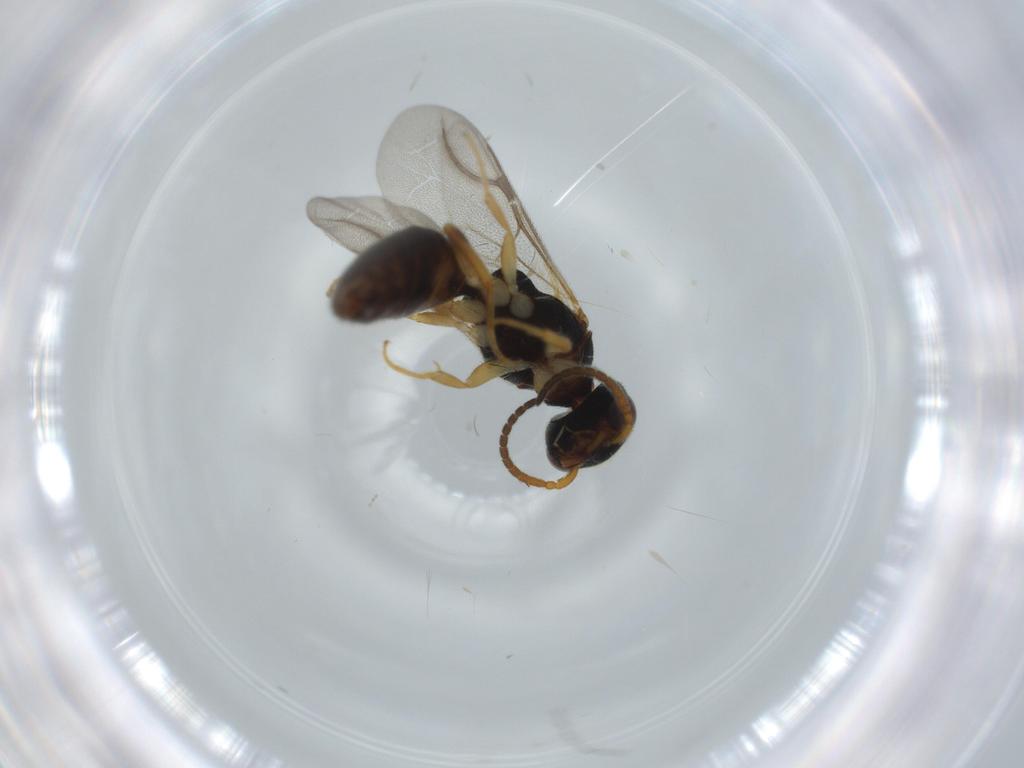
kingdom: Animalia
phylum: Arthropoda
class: Insecta
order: Hymenoptera
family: Bethylidae
